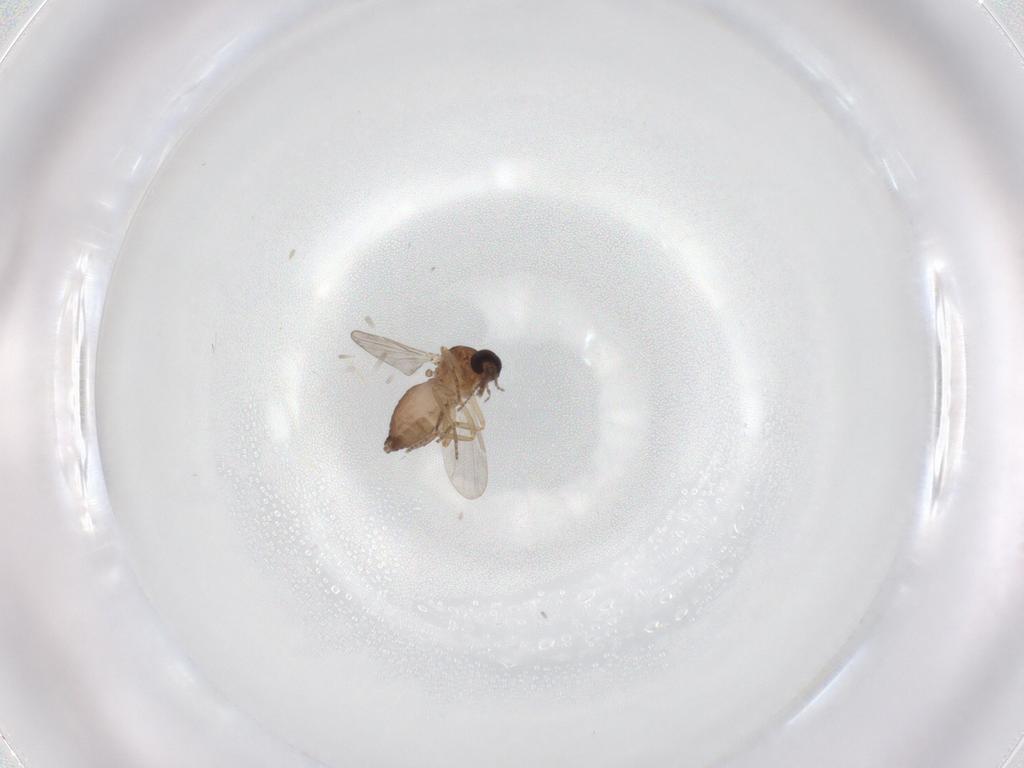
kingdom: Animalia
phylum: Arthropoda
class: Insecta
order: Diptera
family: Ceratopogonidae
